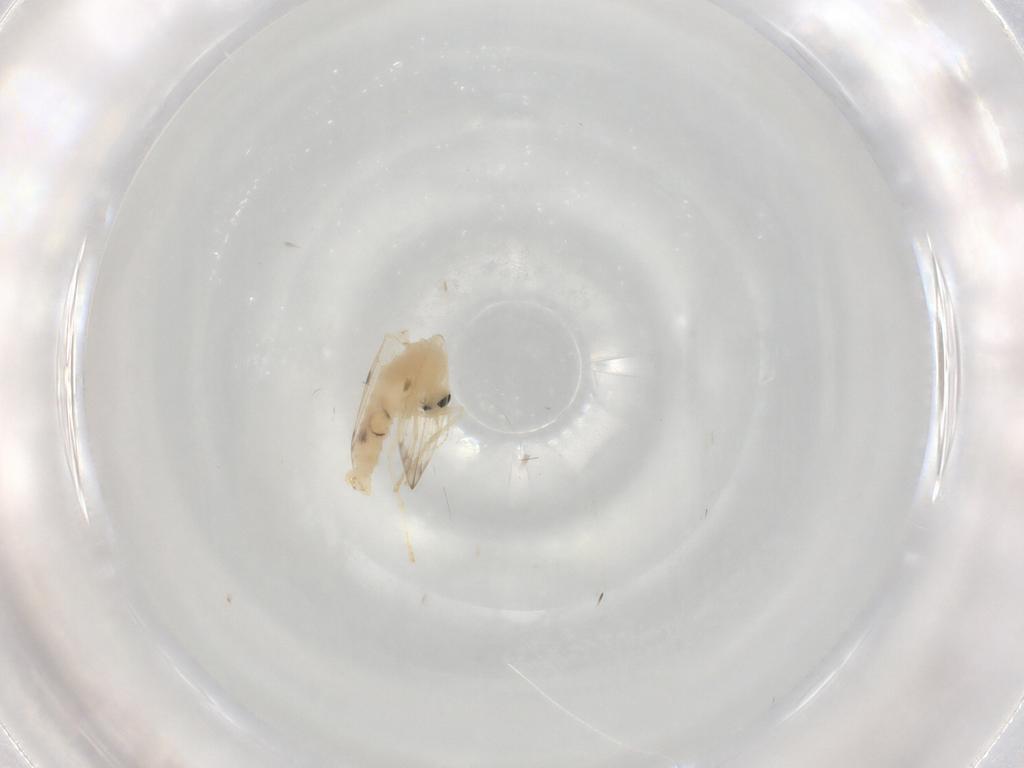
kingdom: Animalia
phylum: Arthropoda
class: Insecta
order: Diptera
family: Psychodidae
